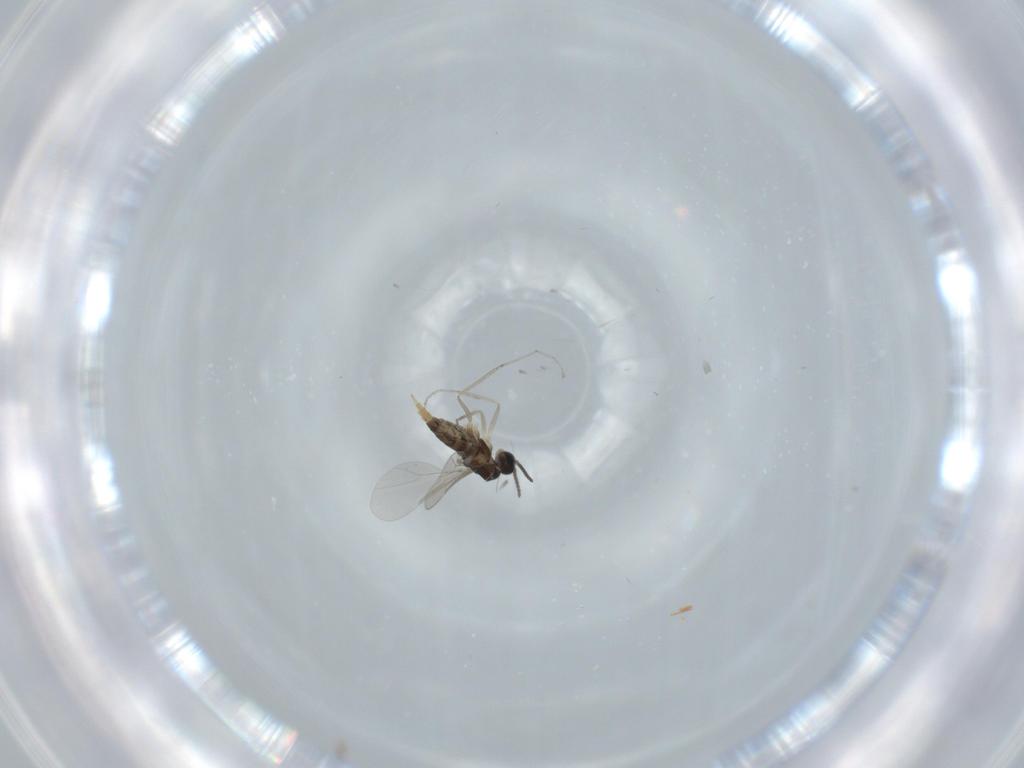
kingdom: Animalia
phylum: Arthropoda
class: Insecta
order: Diptera
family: Cecidomyiidae
